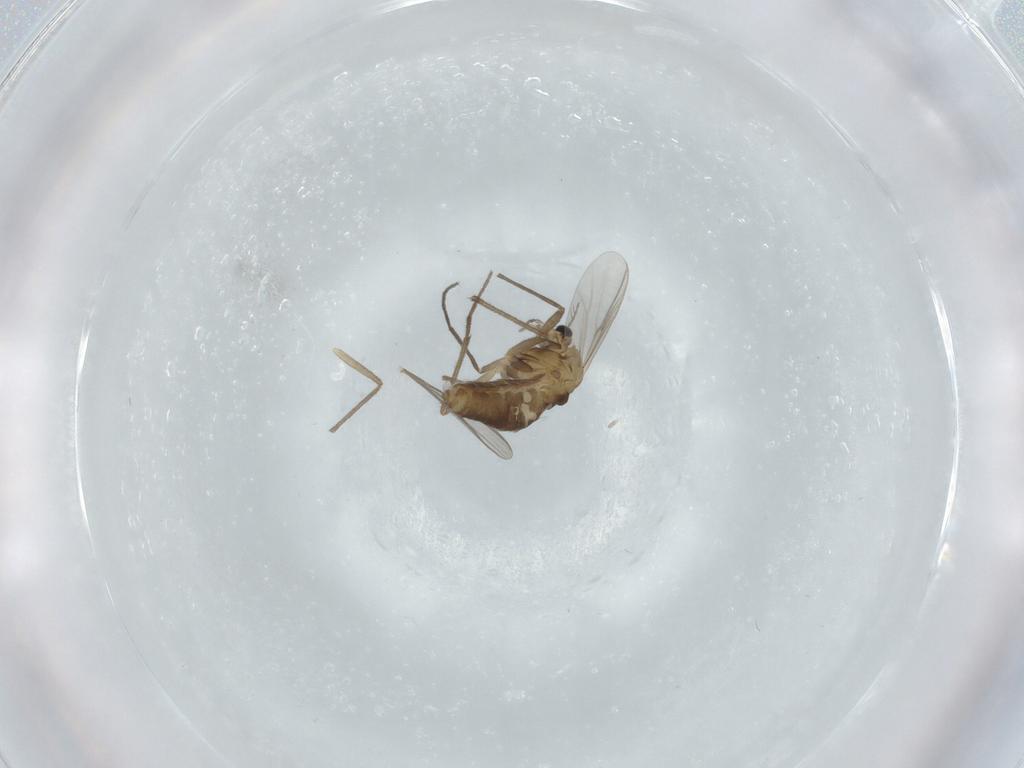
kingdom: Animalia
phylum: Arthropoda
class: Insecta
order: Diptera
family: Chironomidae
